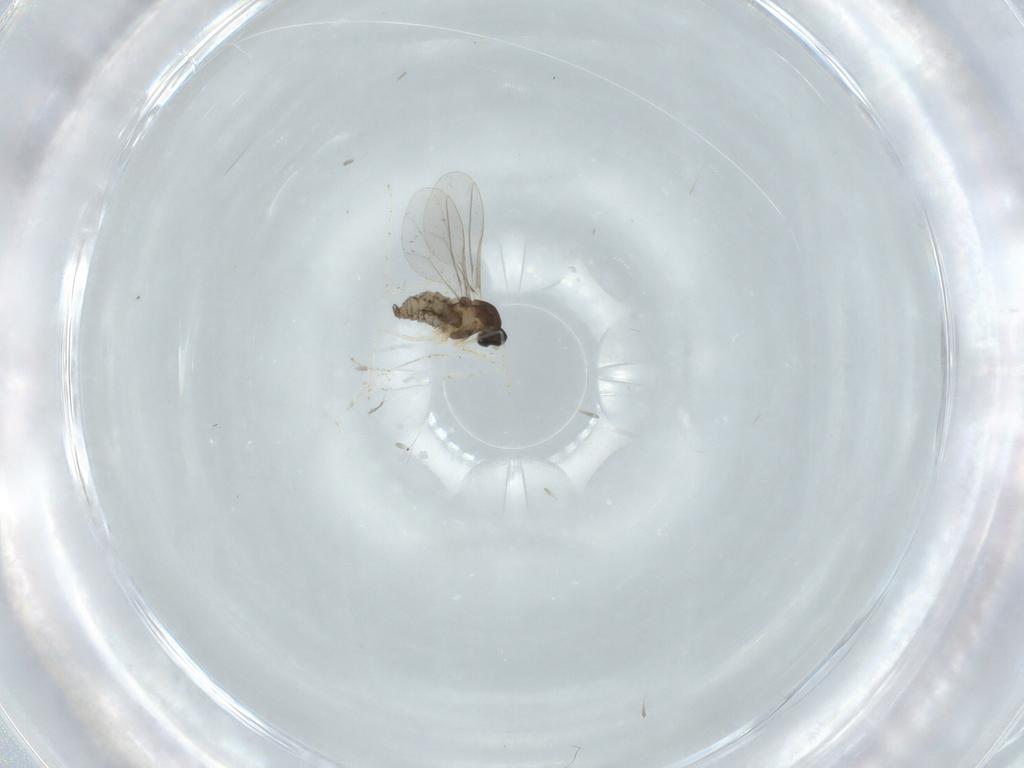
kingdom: Animalia
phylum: Arthropoda
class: Insecta
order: Diptera
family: Cecidomyiidae
